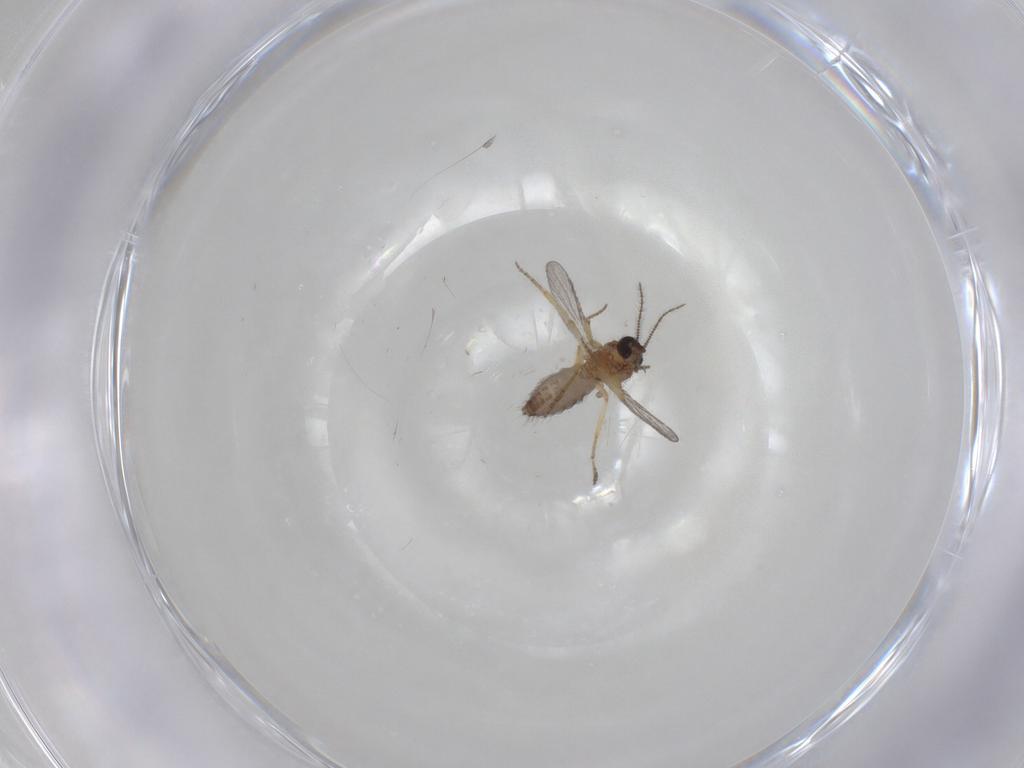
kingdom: Animalia
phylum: Arthropoda
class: Insecta
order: Diptera
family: Ceratopogonidae
